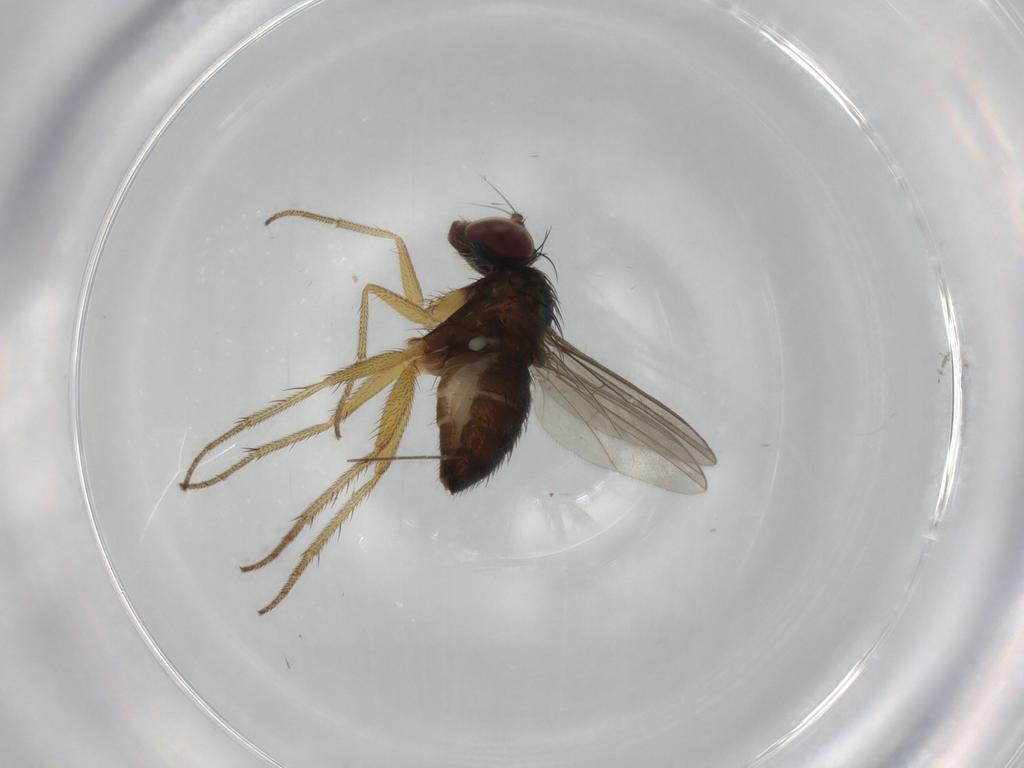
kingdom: Animalia
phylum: Arthropoda
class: Insecta
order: Diptera
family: Dolichopodidae
